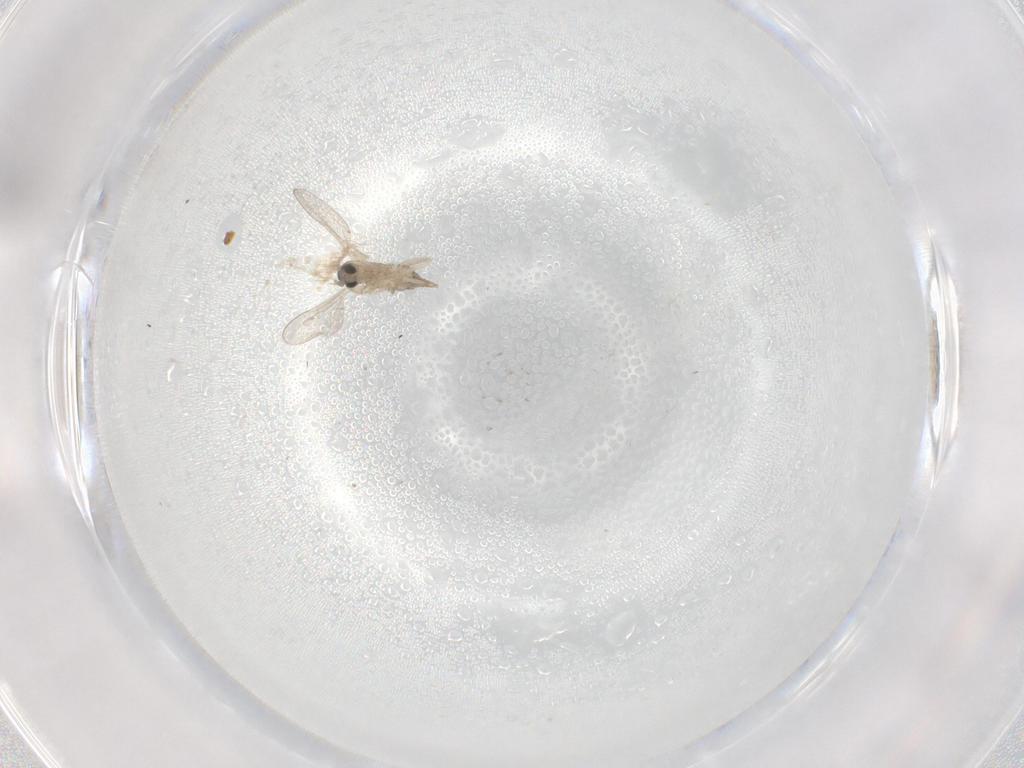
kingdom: Animalia
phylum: Arthropoda
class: Insecta
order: Diptera
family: Cecidomyiidae
